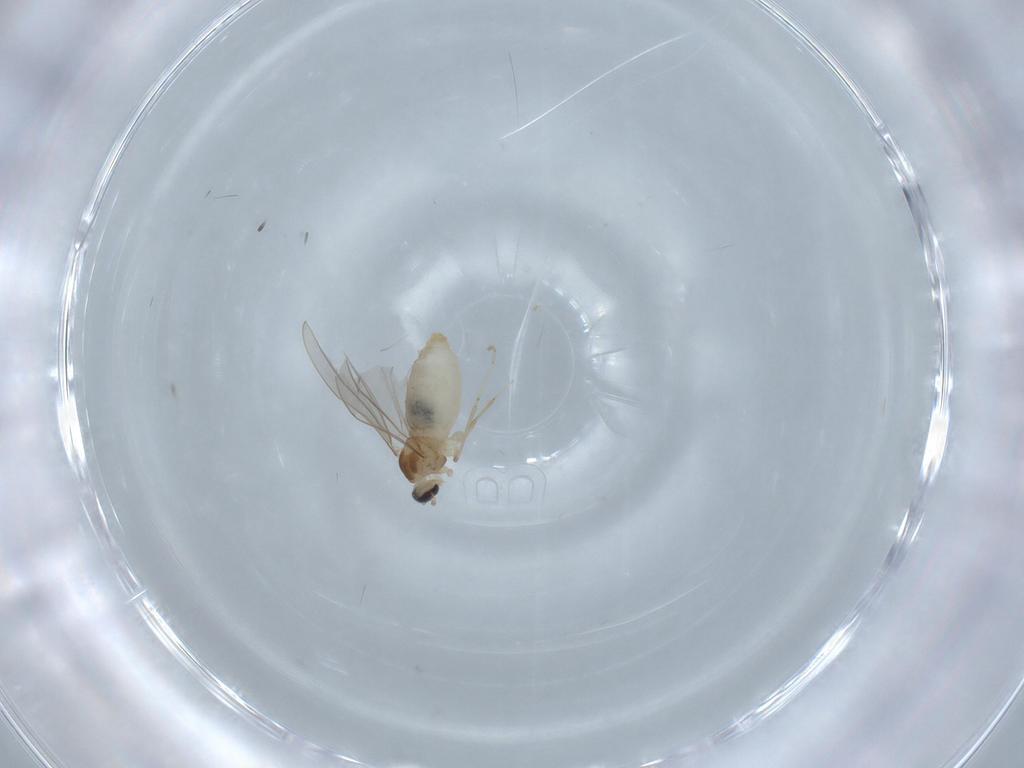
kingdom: Animalia
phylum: Arthropoda
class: Insecta
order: Diptera
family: Cecidomyiidae
